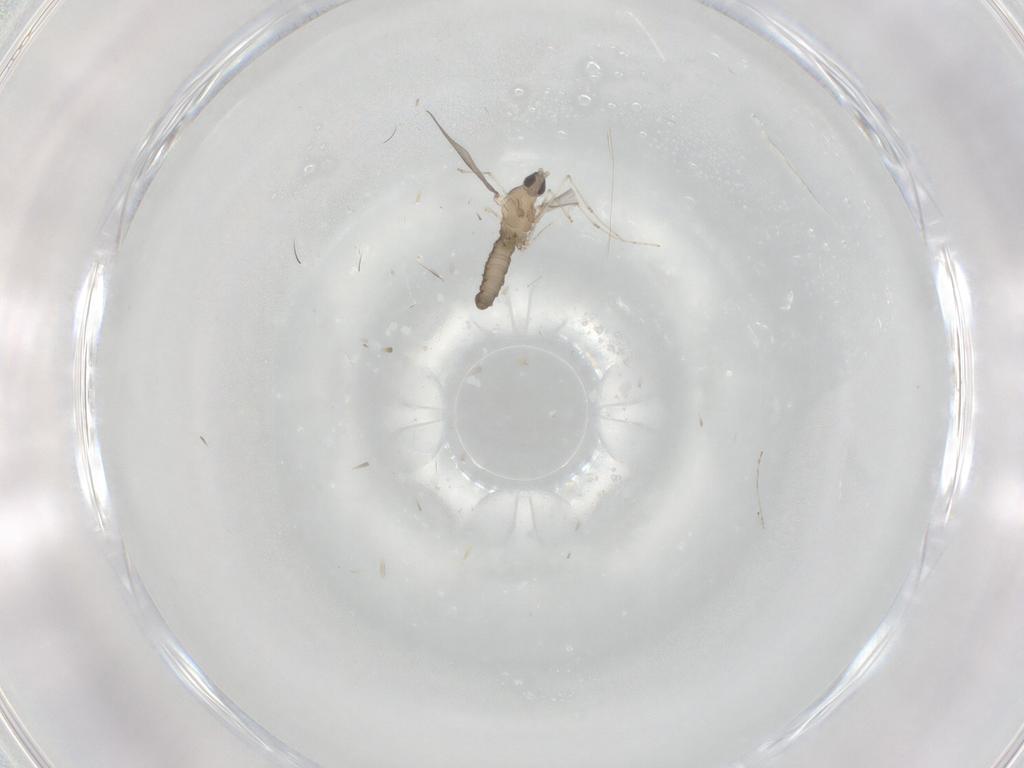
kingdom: Animalia
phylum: Arthropoda
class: Insecta
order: Diptera
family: Cecidomyiidae
